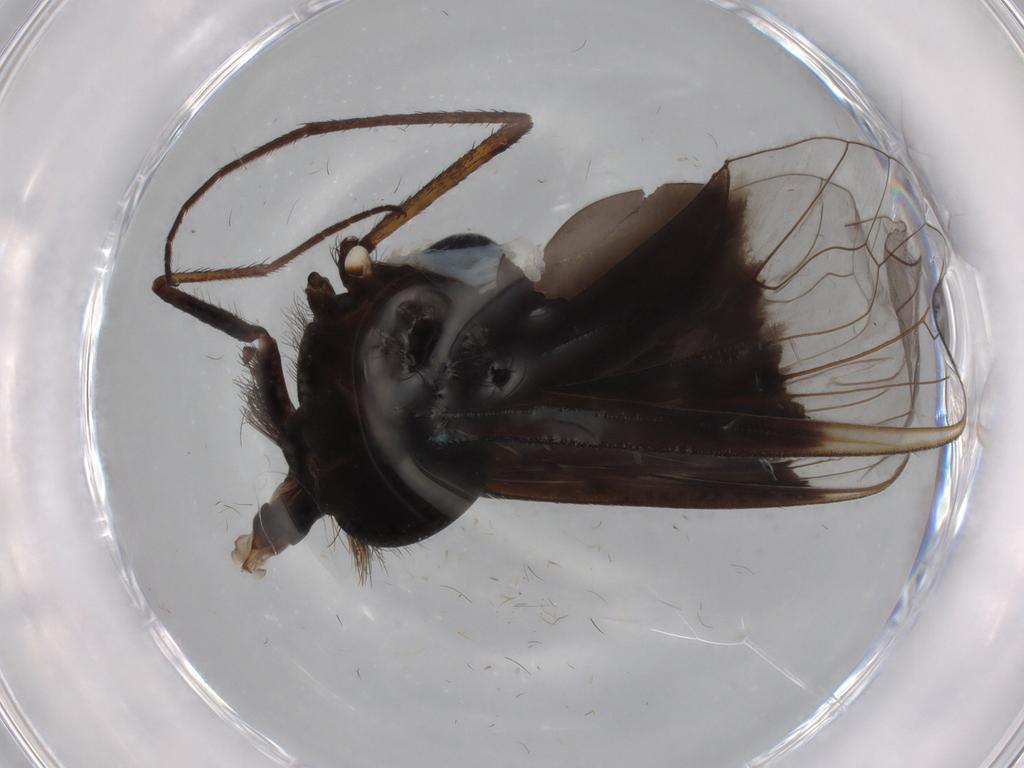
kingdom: Animalia
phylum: Arthropoda
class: Insecta
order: Diptera
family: Bombyliidae
